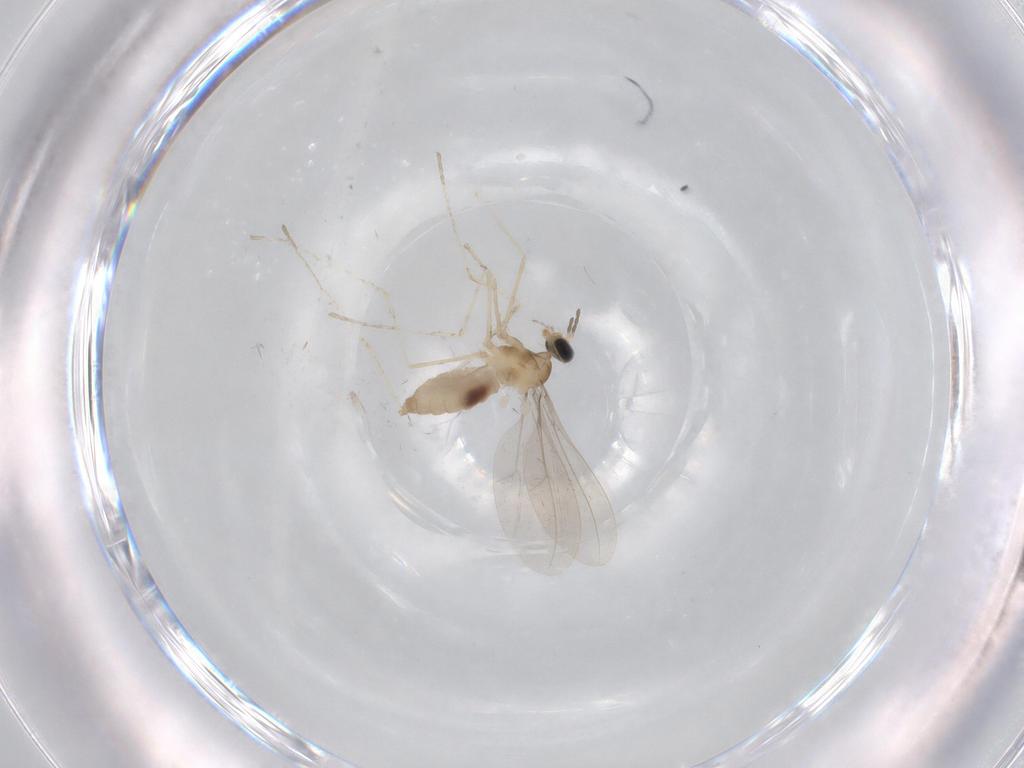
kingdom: Animalia
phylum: Arthropoda
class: Insecta
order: Diptera
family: Cecidomyiidae
